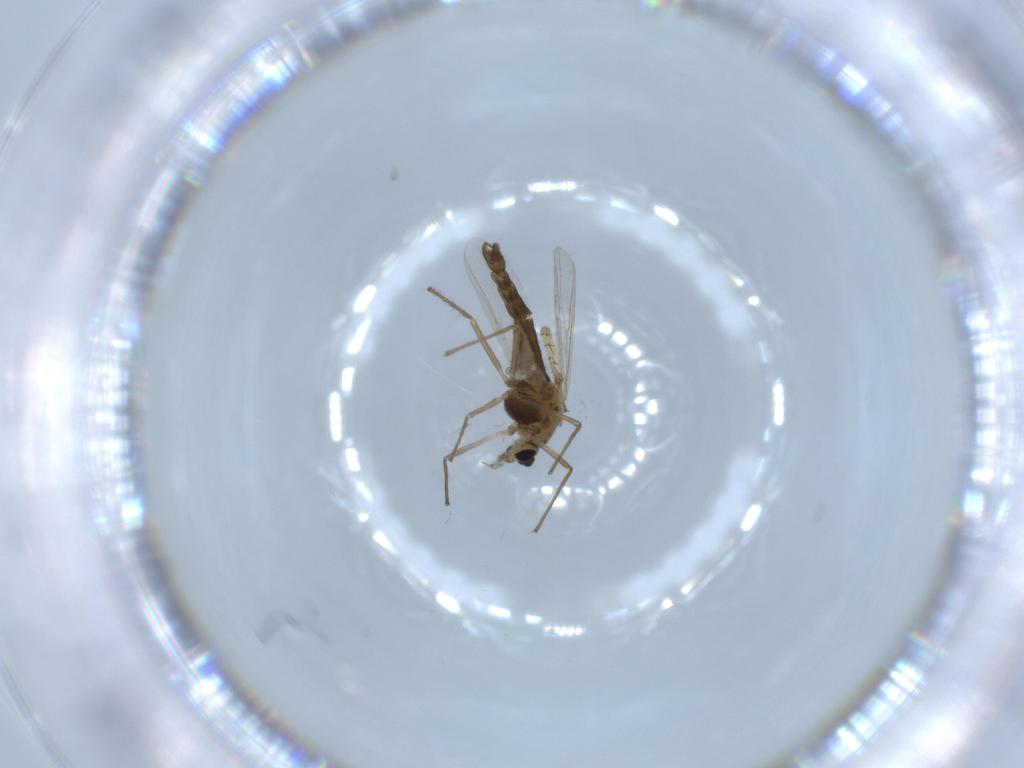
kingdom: Animalia
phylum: Arthropoda
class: Insecta
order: Diptera
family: Chironomidae
